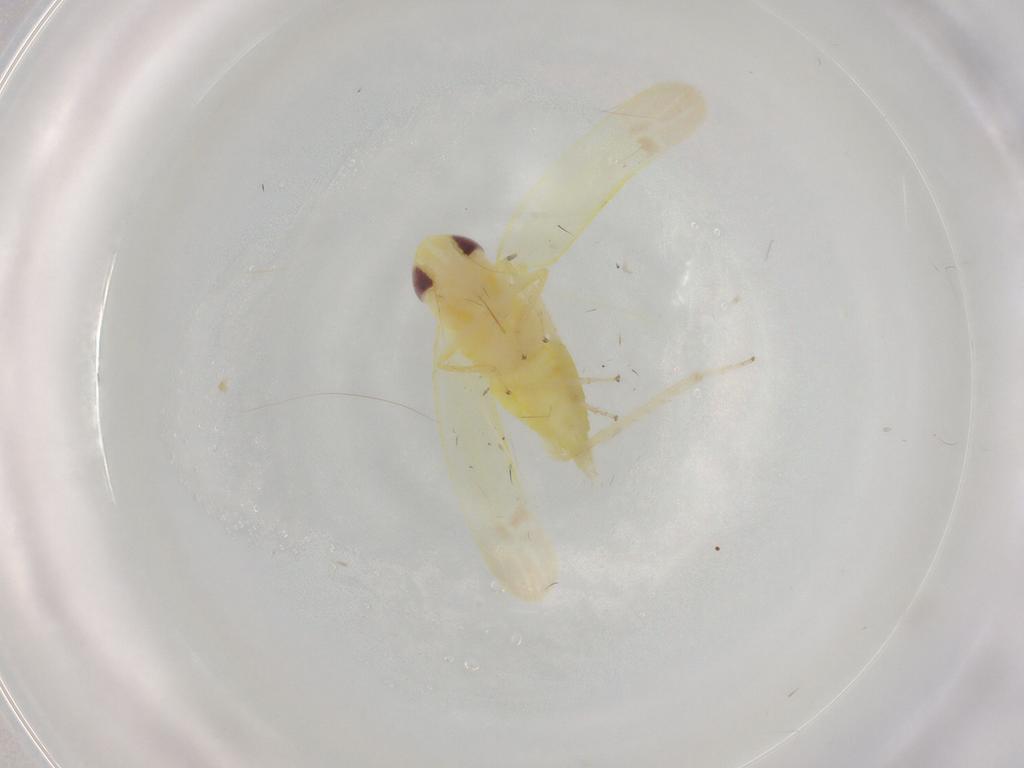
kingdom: Animalia
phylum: Arthropoda
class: Insecta
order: Hemiptera
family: Cicadellidae
